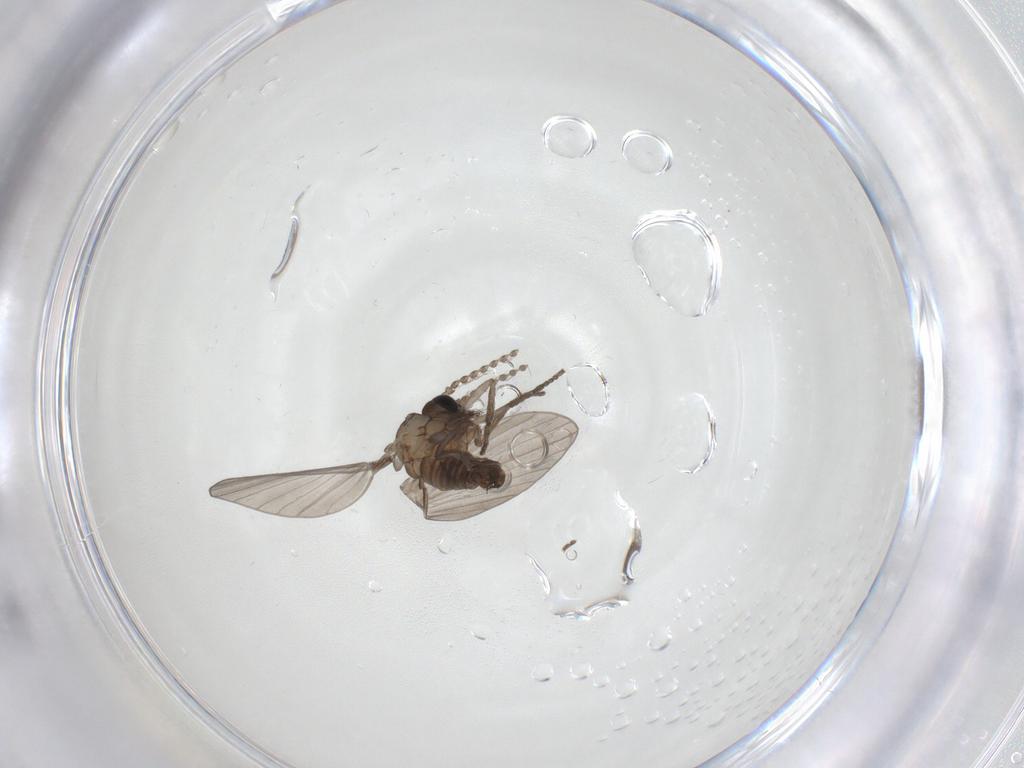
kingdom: Animalia
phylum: Arthropoda
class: Insecta
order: Diptera
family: Psychodidae
